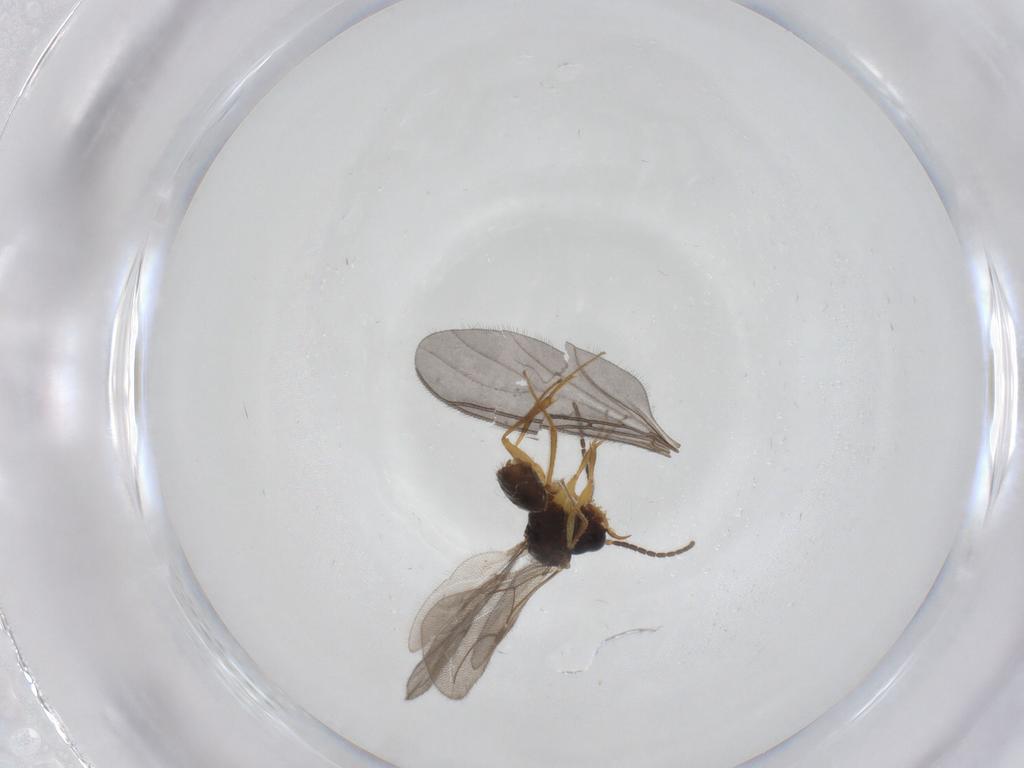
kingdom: Animalia
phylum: Arthropoda
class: Insecta
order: Hymenoptera
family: Bethylidae
